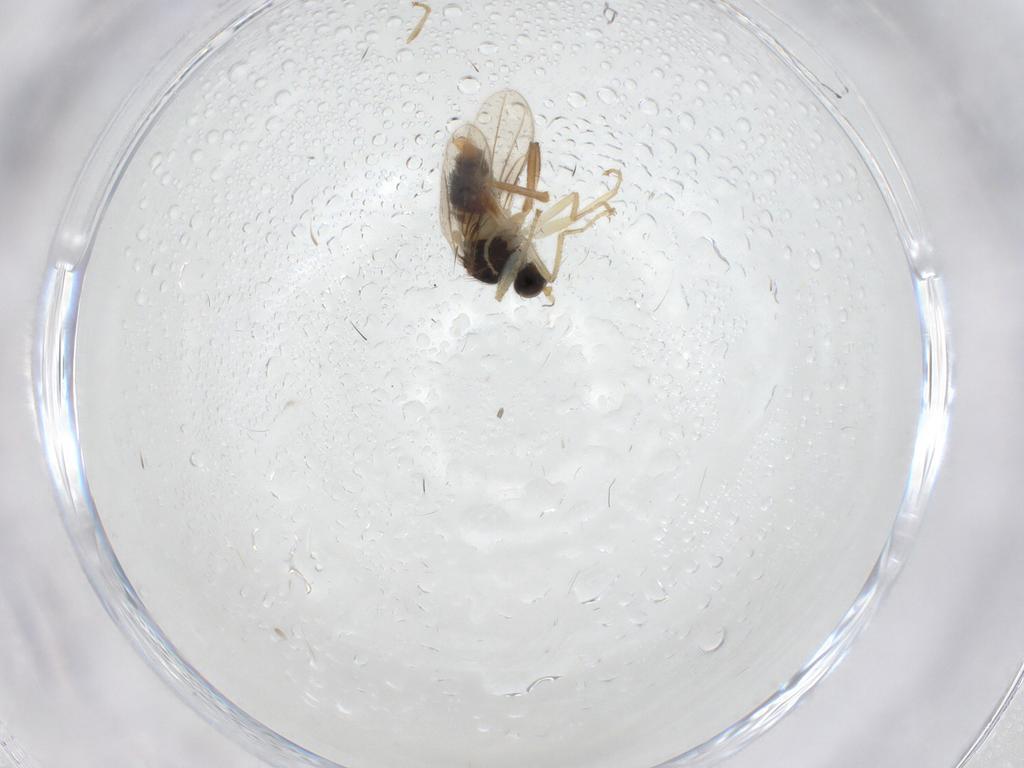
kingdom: Animalia
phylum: Arthropoda
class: Insecta
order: Diptera
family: Hybotidae
